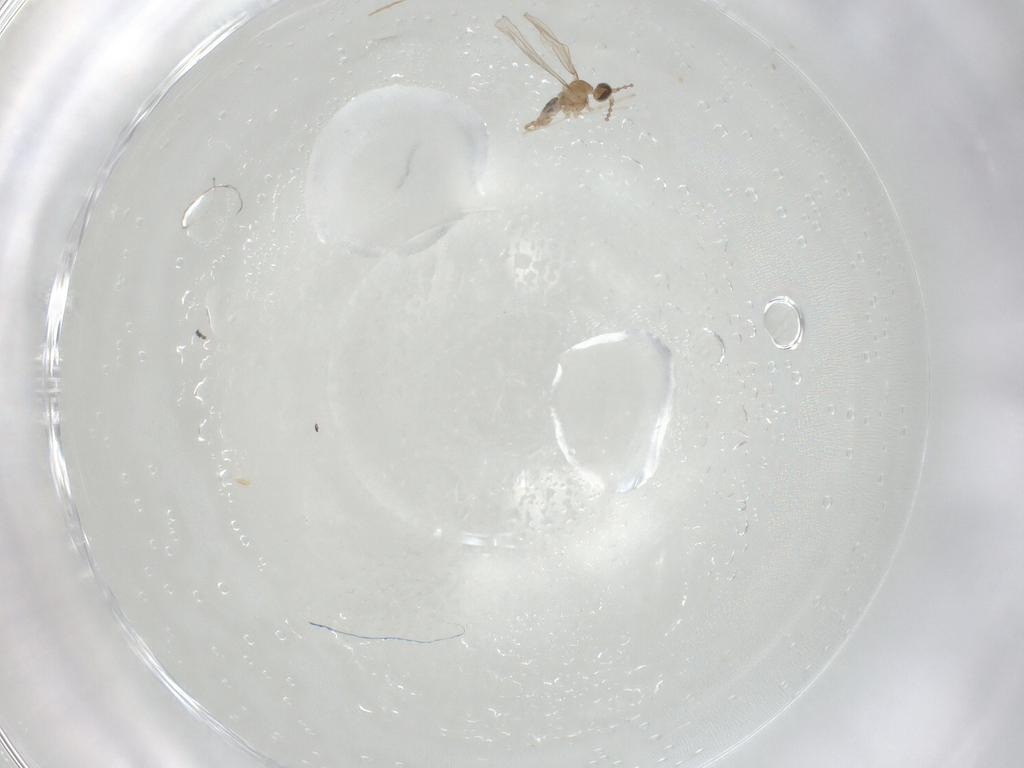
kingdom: Animalia
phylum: Arthropoda
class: Insecta
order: Diptera
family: Cecidomyiidae
